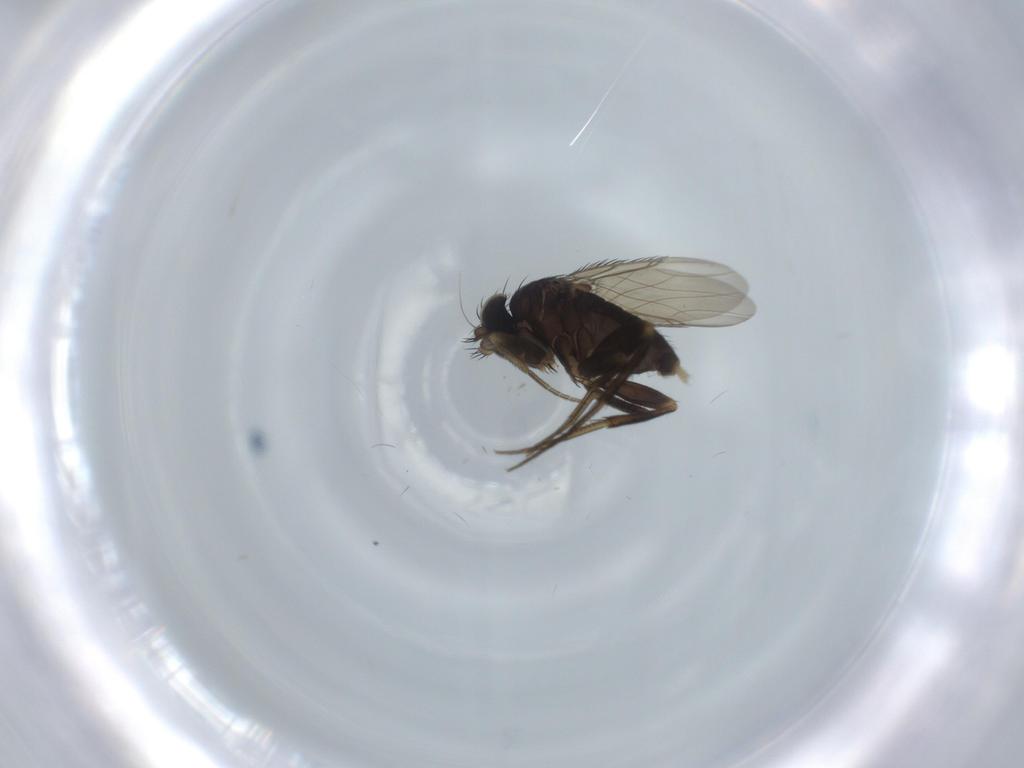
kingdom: Animalia
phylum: Arthropoda
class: Insecta
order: Diptera
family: Phoridae
